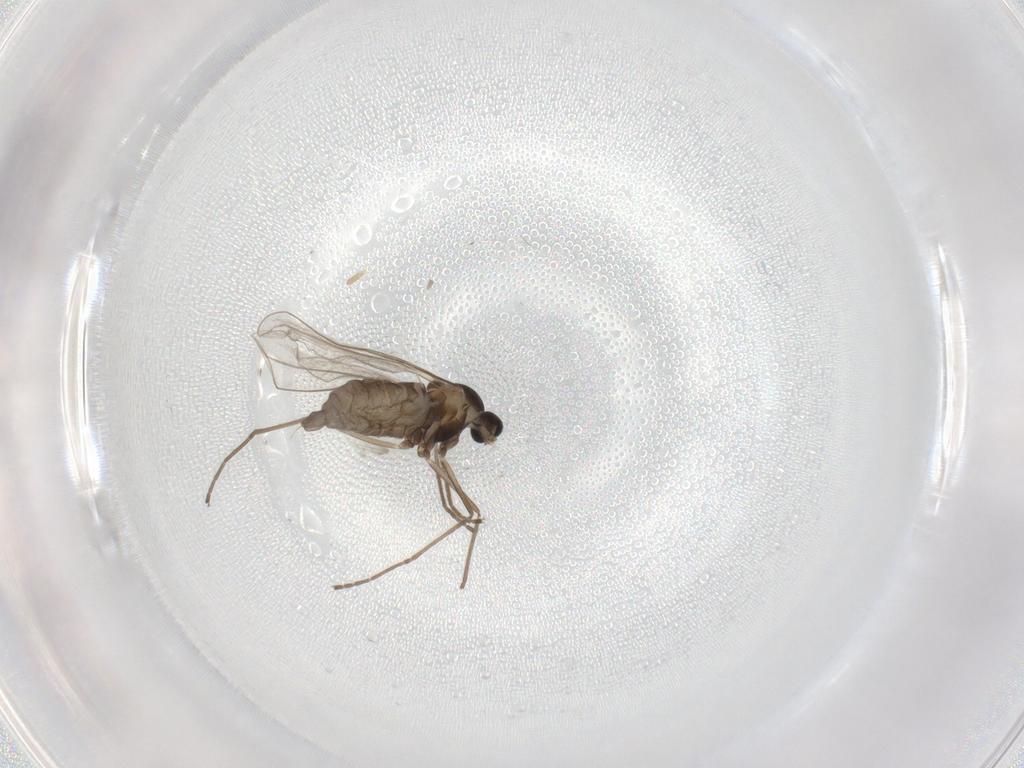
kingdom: Animalia
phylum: Arthropoda
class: Insecta
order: Diptera
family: Cecidomyiidae
